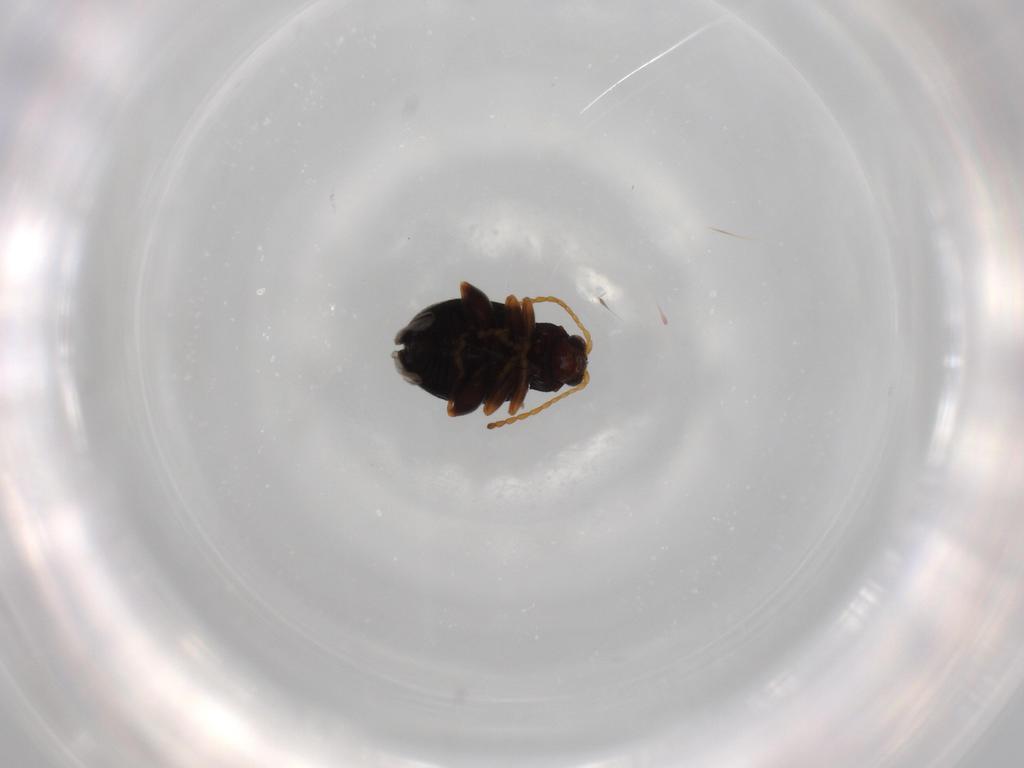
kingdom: Animalia
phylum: Arthropoda
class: Insecta
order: Coleoptera
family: Chrysomelidae
